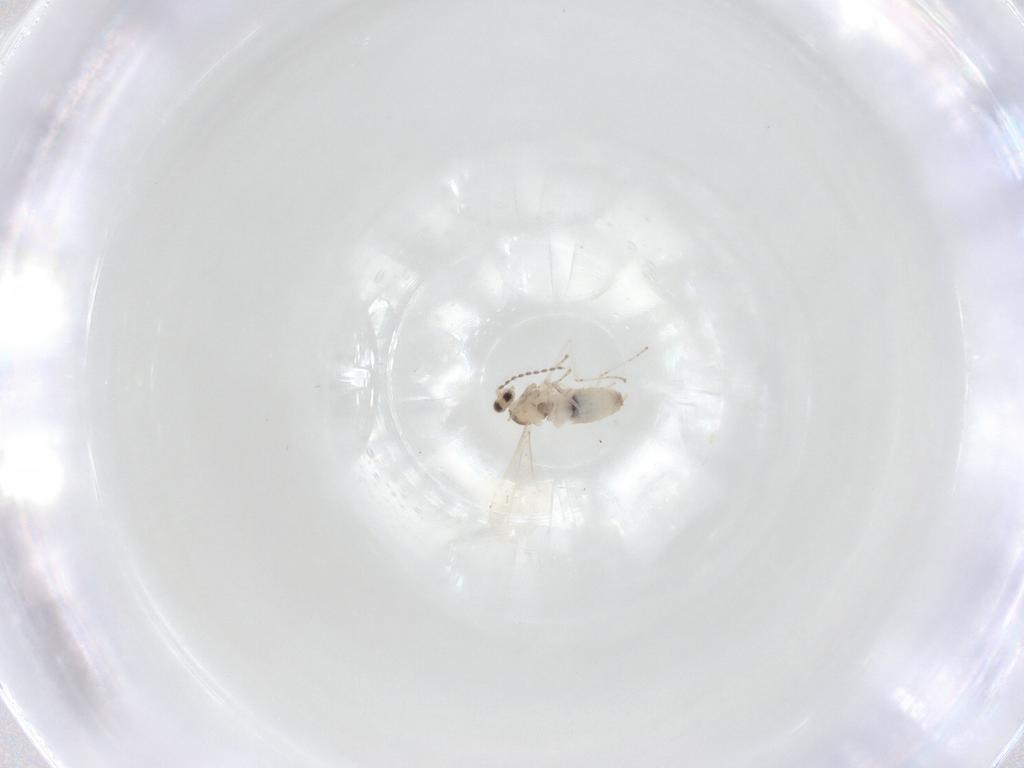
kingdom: Animalia
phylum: Arthropoda
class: Insecta
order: Diptera
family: Cecidomyiidae
